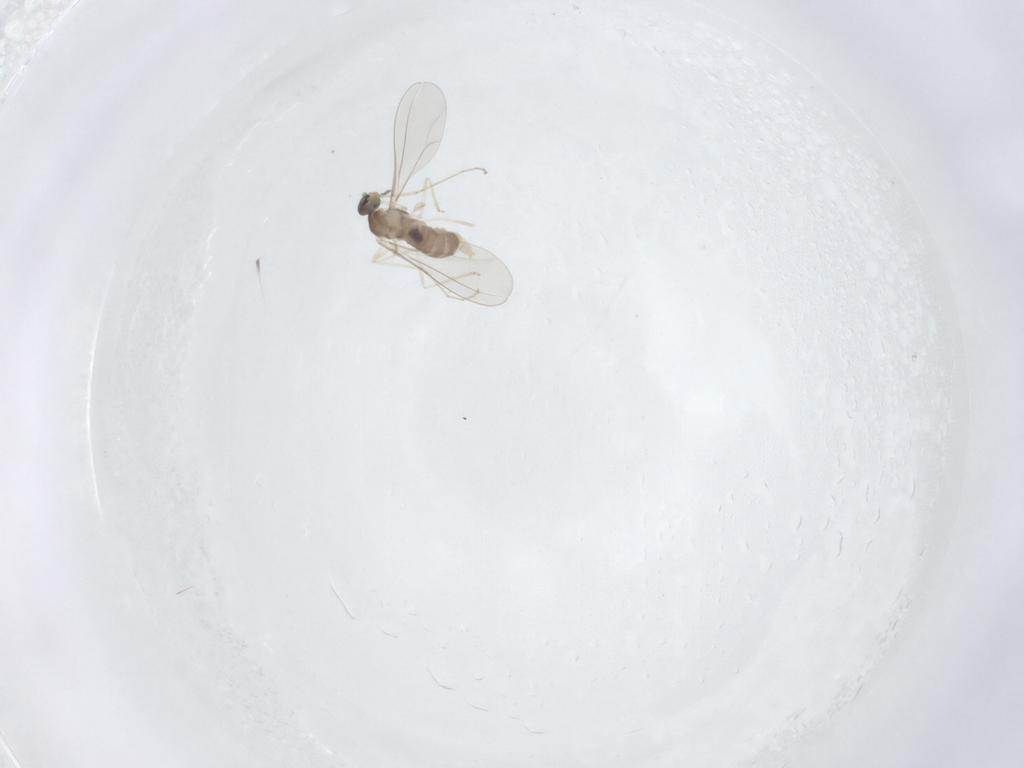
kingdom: Animalia
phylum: Arthropoda
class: Insecta
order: Diptera
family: Cecidomyiidae
